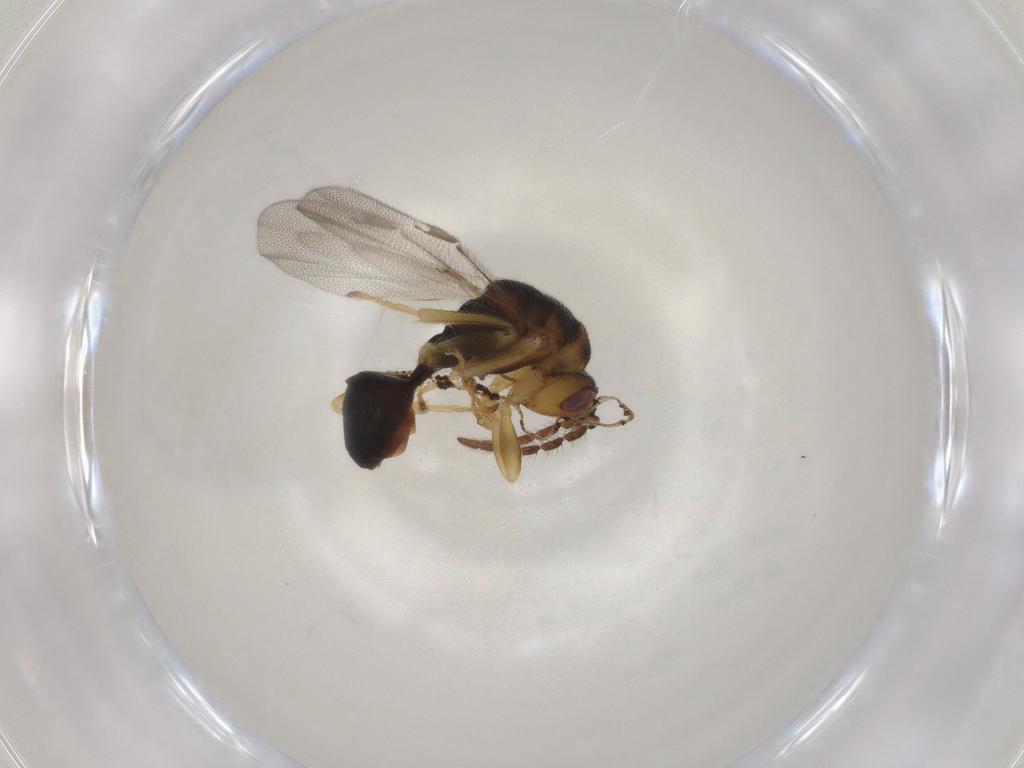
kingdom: Animalia
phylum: Arthropoda
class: Insecta
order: Hymenoptera
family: Eurytomidae
